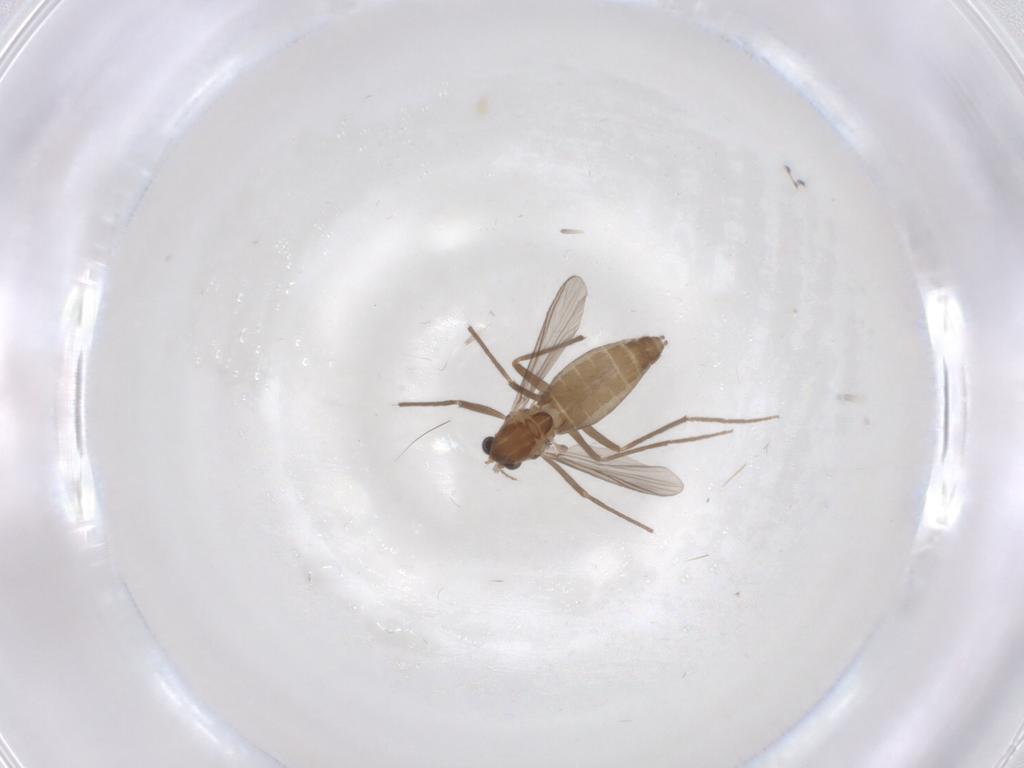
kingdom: Animalia
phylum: Arthropoda
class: Insecta
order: Diptera
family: Chironomidae
